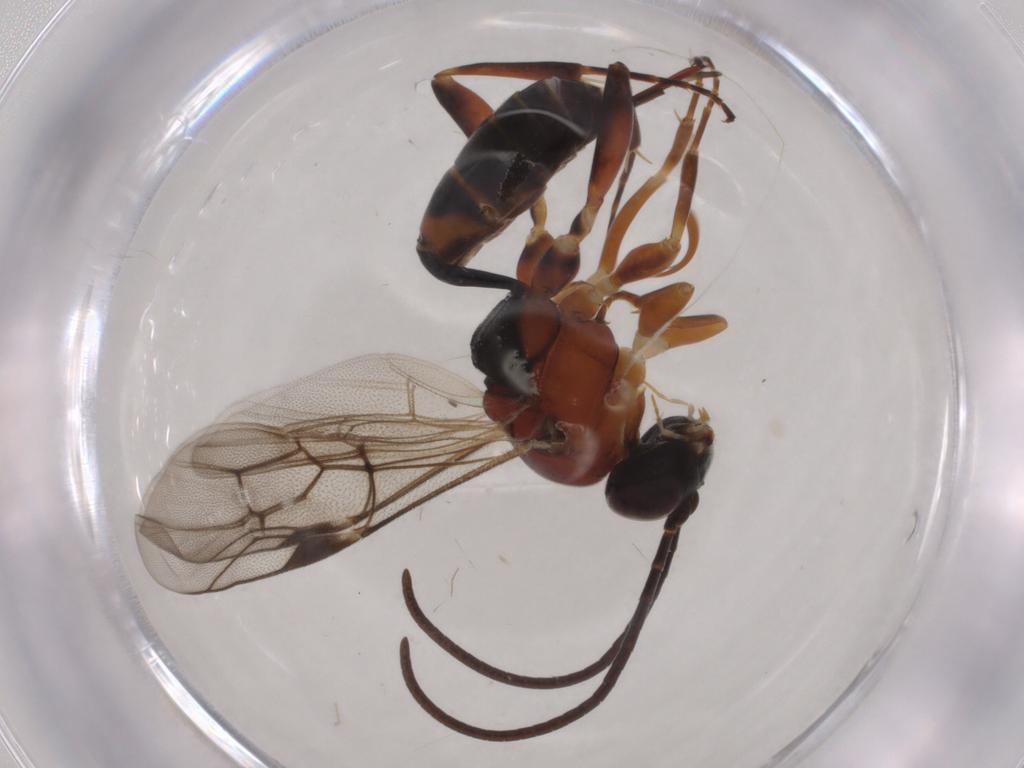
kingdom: Animalia
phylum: Arthropoda
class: Insecta
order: Hymenoptera
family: Ichneumonidae
